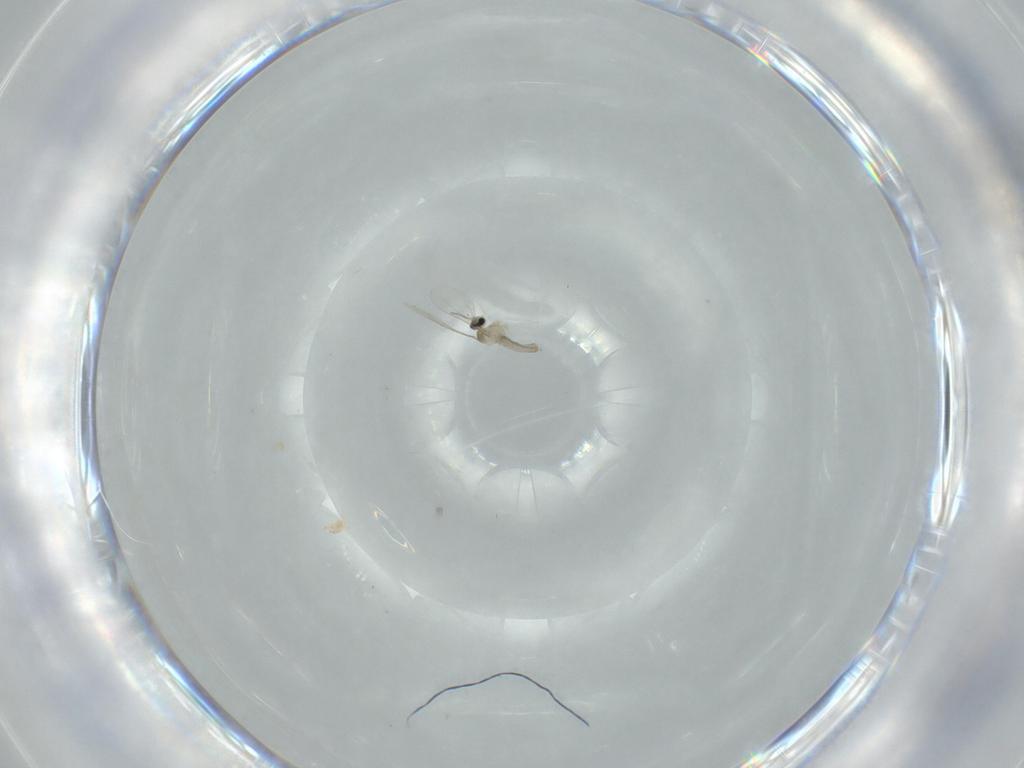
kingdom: Animalia
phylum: Arthropoda
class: Insecta
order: Diptera
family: Cecidomyiidae
